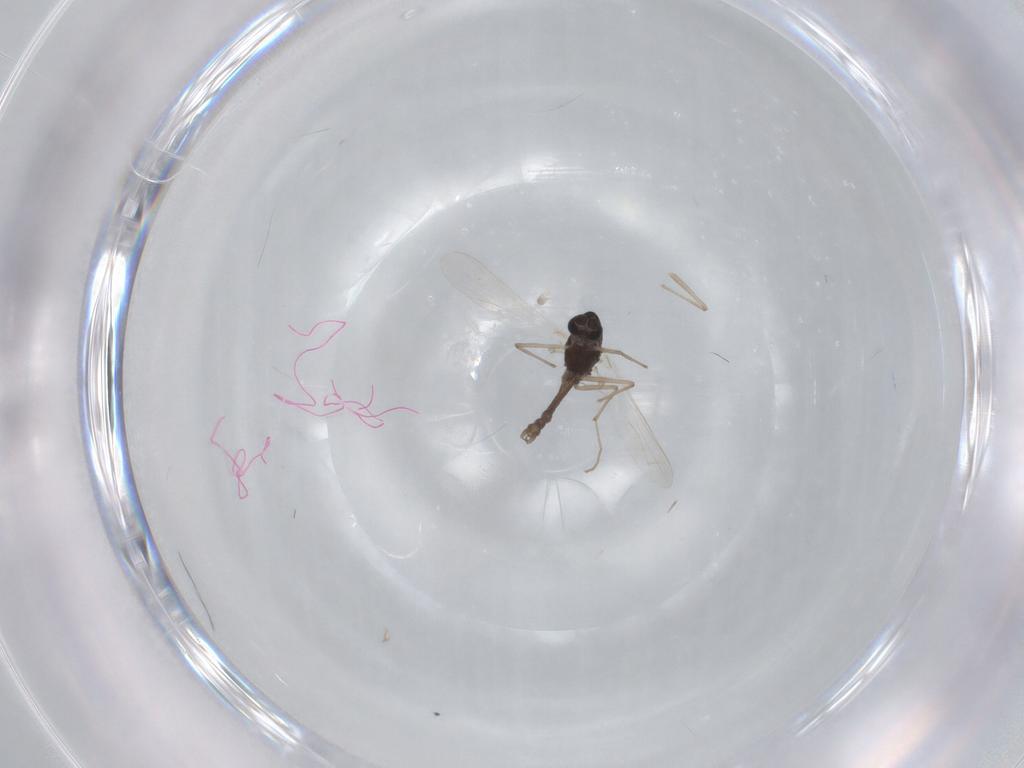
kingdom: Animalia
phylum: Arthropoda
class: Insecta
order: Diptera
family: Chironomidae
